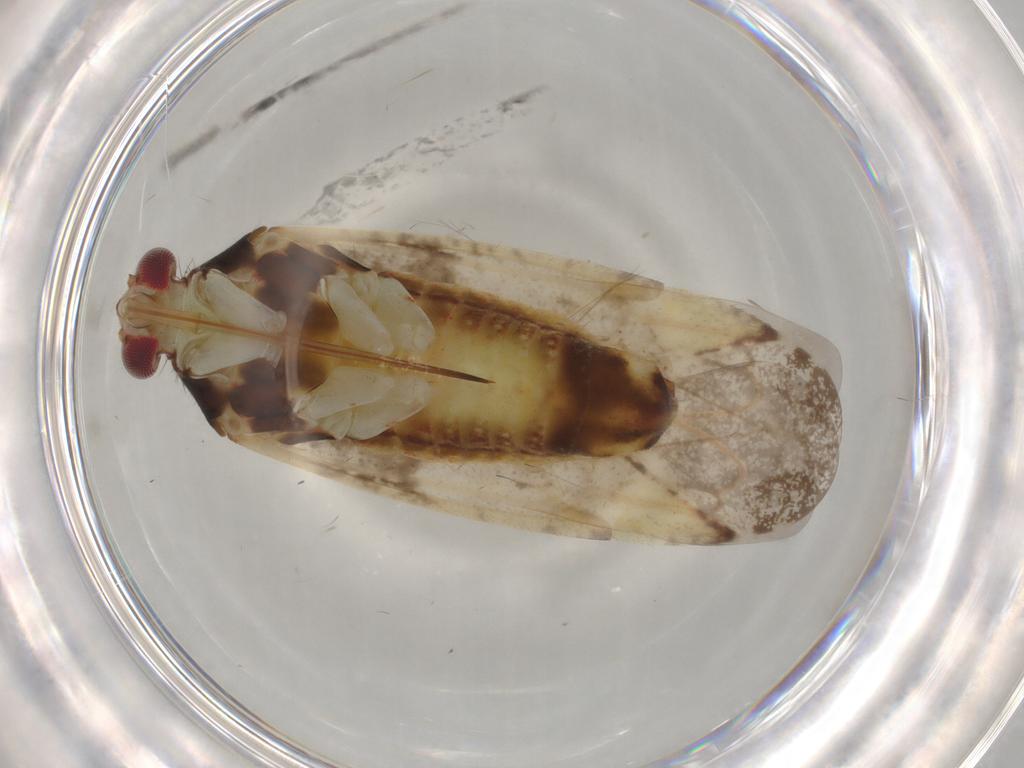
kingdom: Animalia
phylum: Arthropoda
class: Insecta
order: Hemiptera
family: Miridae
